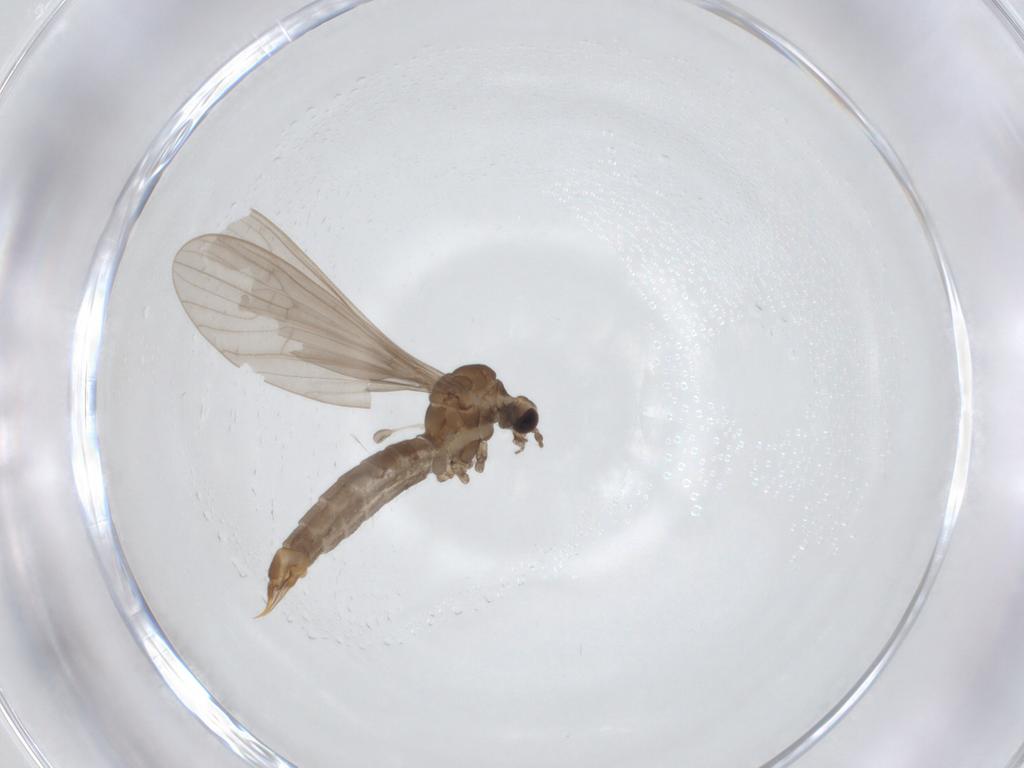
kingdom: Animalia
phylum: Arthropoda
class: Insecta
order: Diptera
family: Limoniidae
